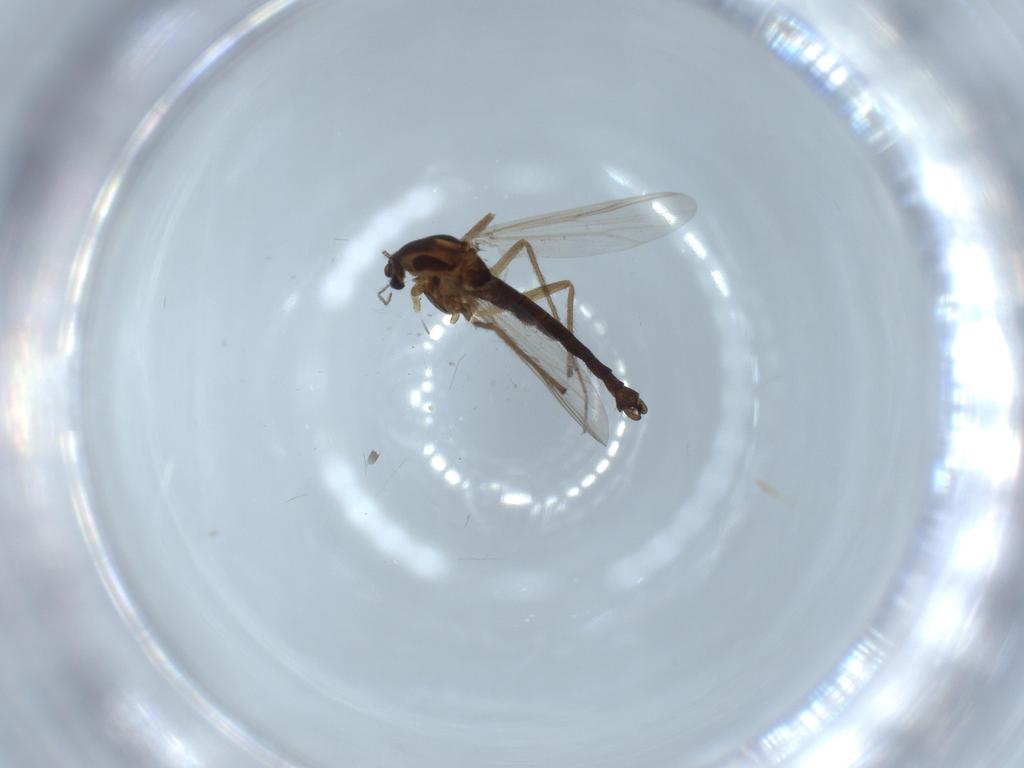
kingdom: Animalia
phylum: Arthropoda
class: Insecta
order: Diptera
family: Chironomidae
